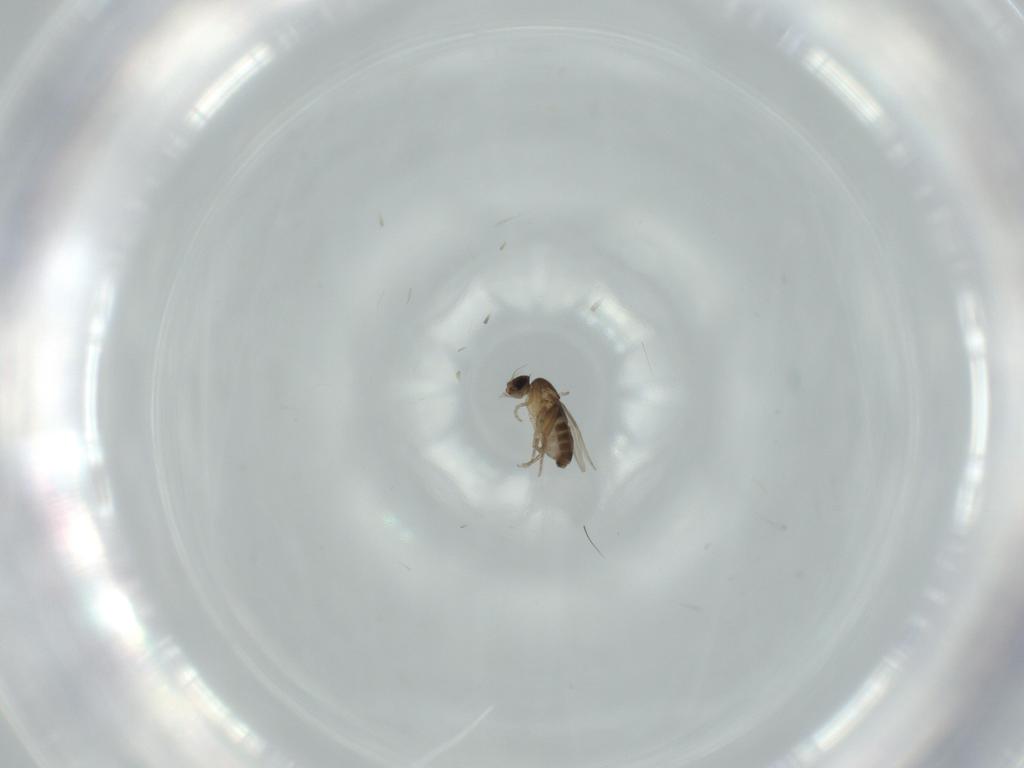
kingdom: Animalia
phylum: Arthropoda
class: Insecta
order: Diptera
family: Phoridae
